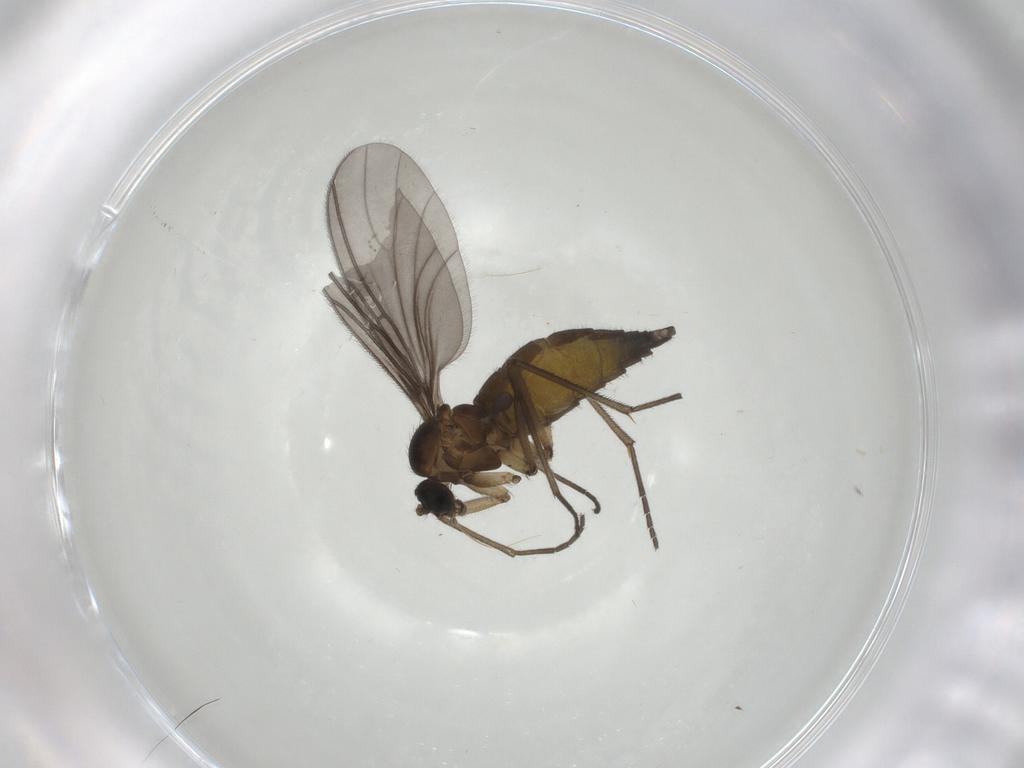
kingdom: Animalia
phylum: Arthropoda
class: Insecta
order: Diptera
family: Sciaridae
